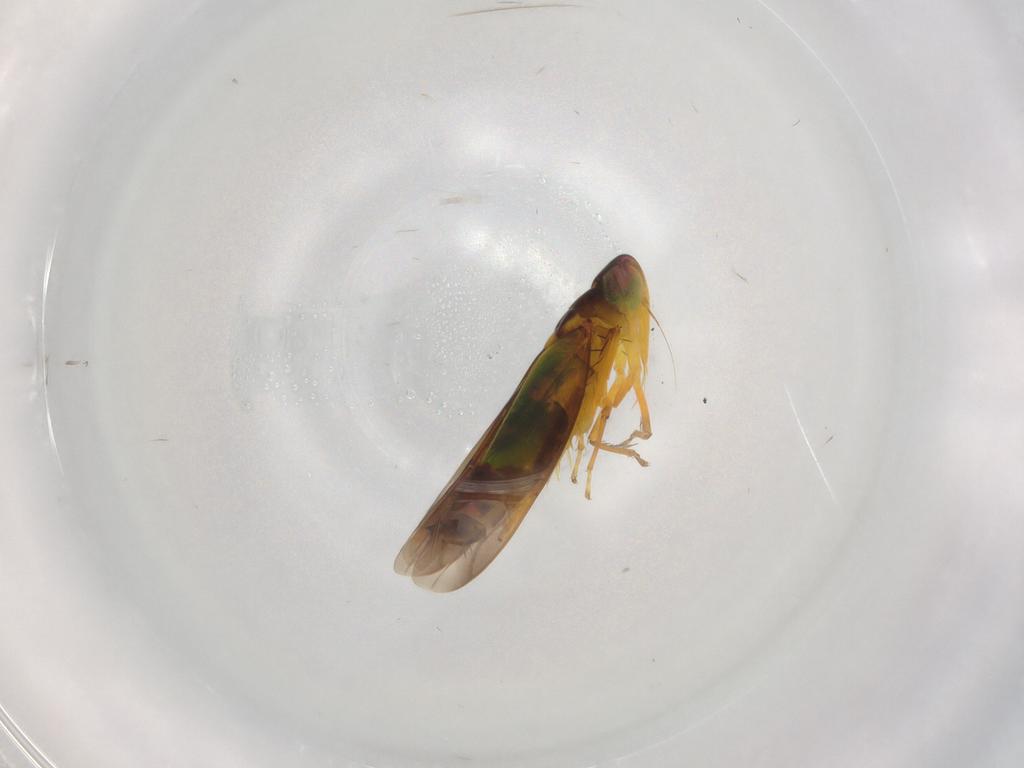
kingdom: Animalia
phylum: Arthropoda
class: Insecta
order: Hemiptera
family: Cicadellidae
